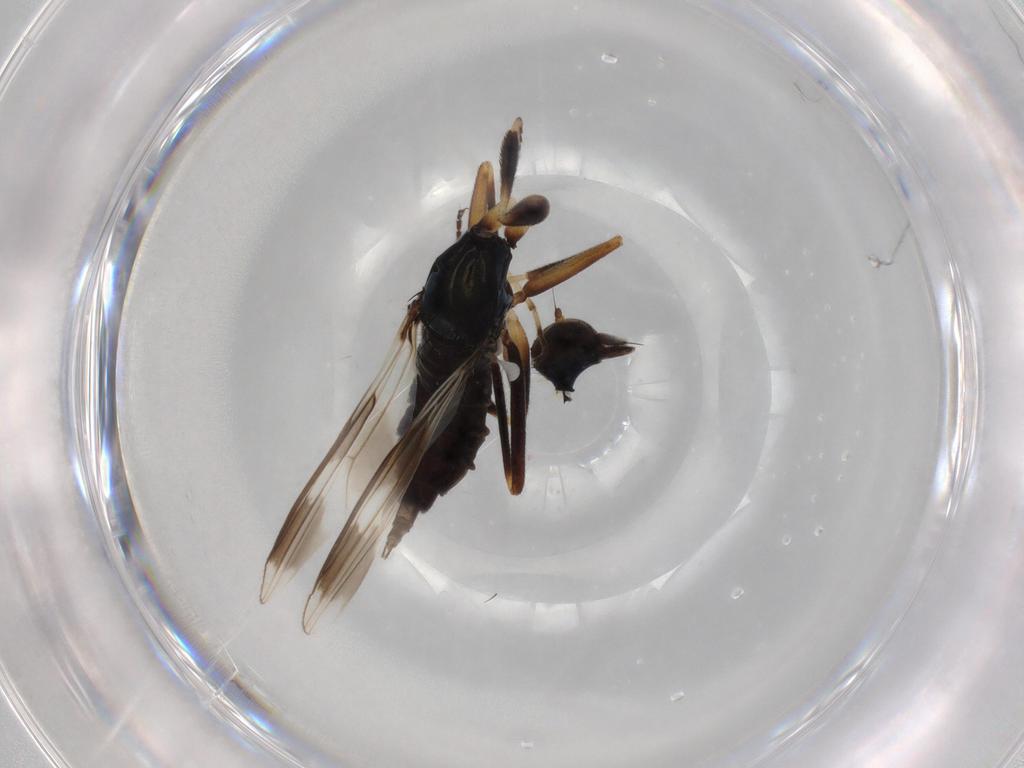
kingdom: Animalia
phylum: Arthropoda
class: Insecta
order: Diptera
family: Hybotidae
